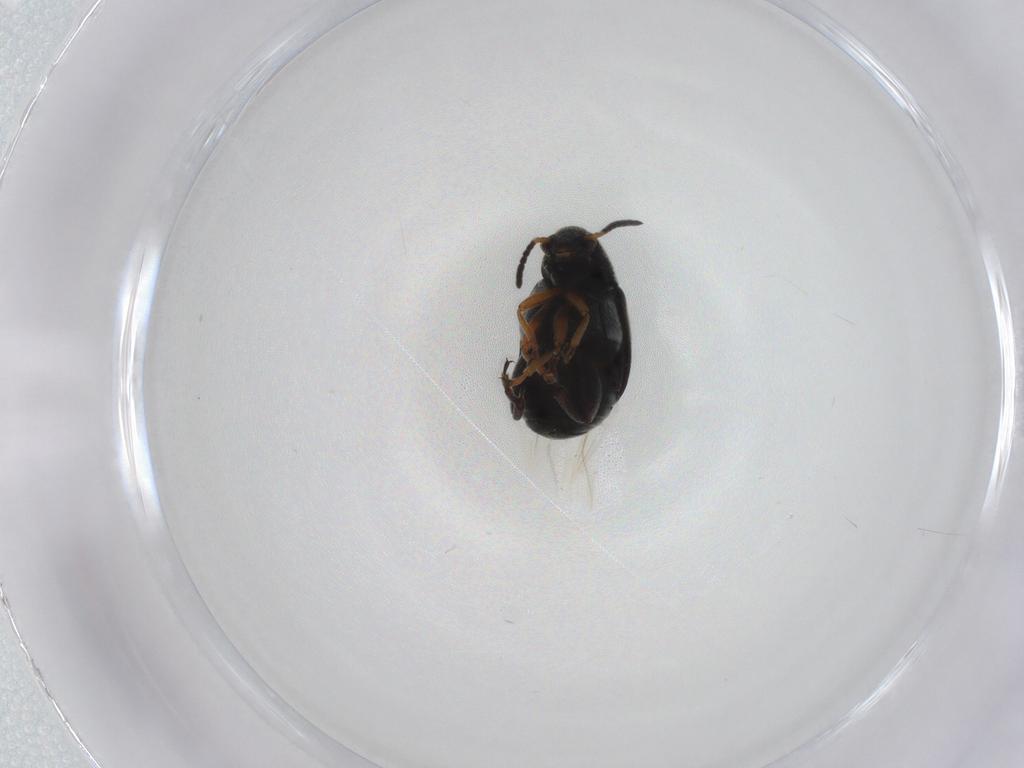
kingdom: Animalia
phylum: Arthropoda
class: Insecta
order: Coleoptera
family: Chrysomelidae
